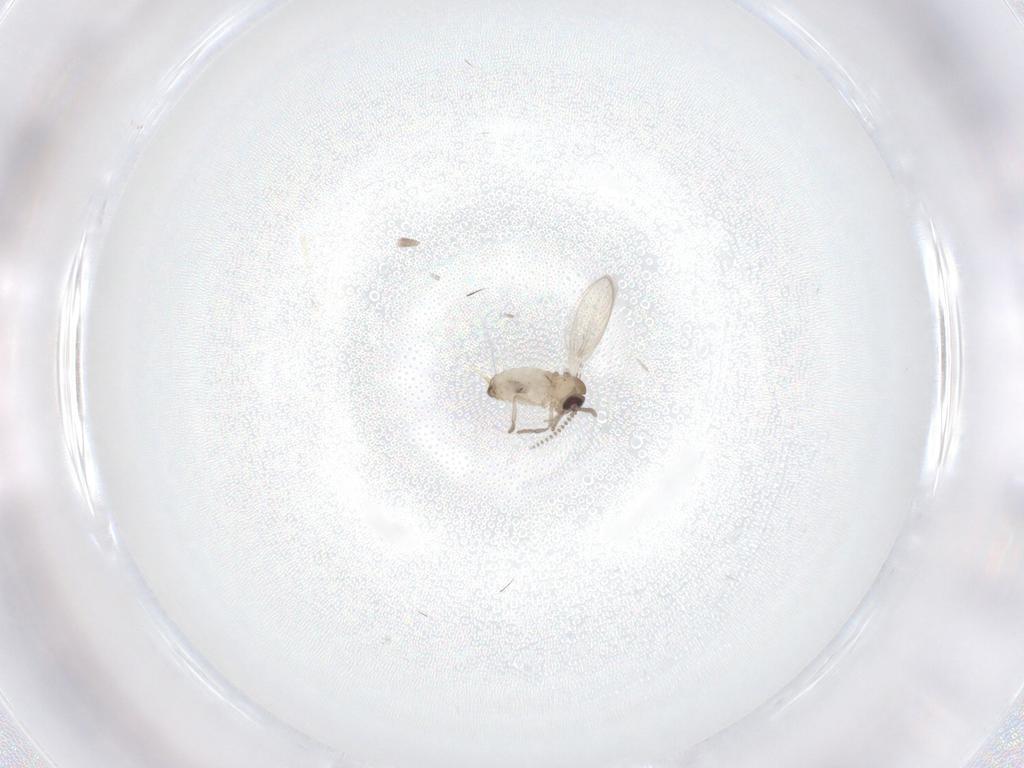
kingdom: Animalia
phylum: Arthropoda
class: Insecta
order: Diptera
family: Psychodidae
